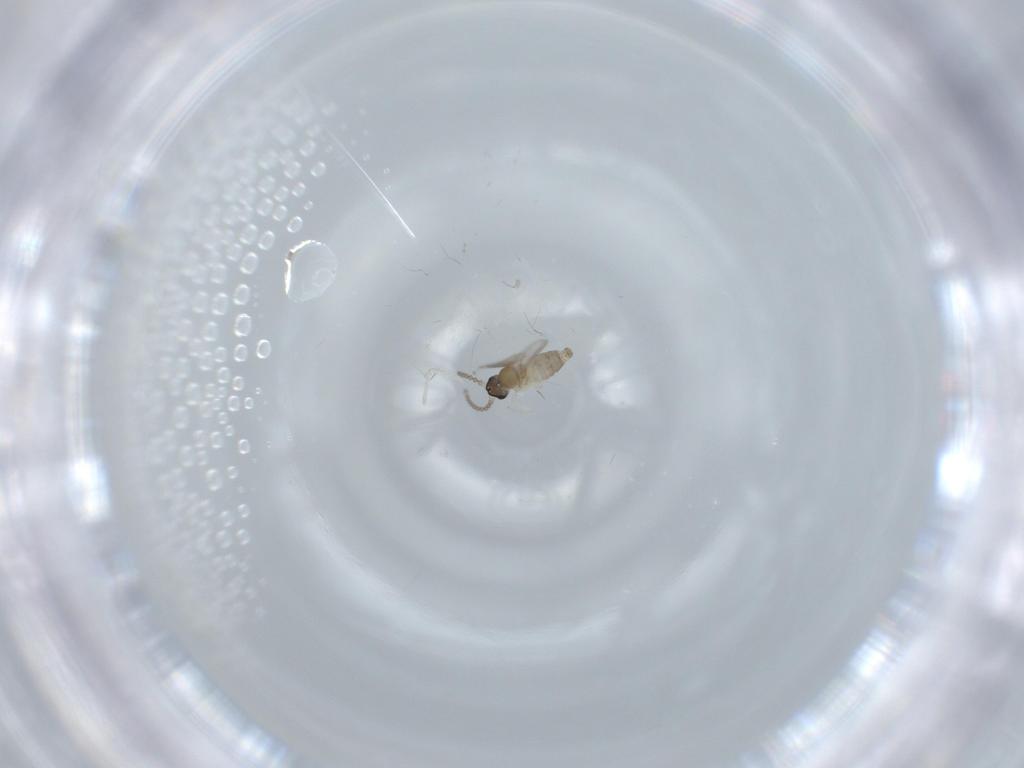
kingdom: Animalia
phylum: Arthropoda
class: Insecta
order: Diptera
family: Cecidomyiidae
